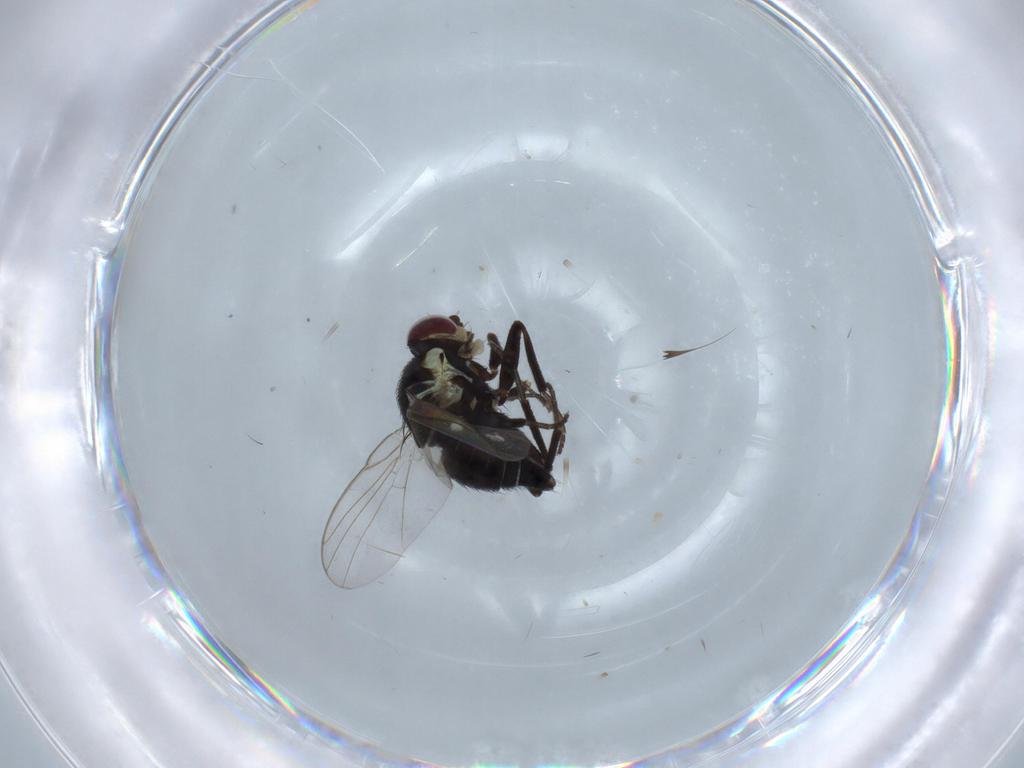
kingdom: Animalia
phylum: Arthropoda
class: Insecta
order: Diptera
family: Agromyzidae
